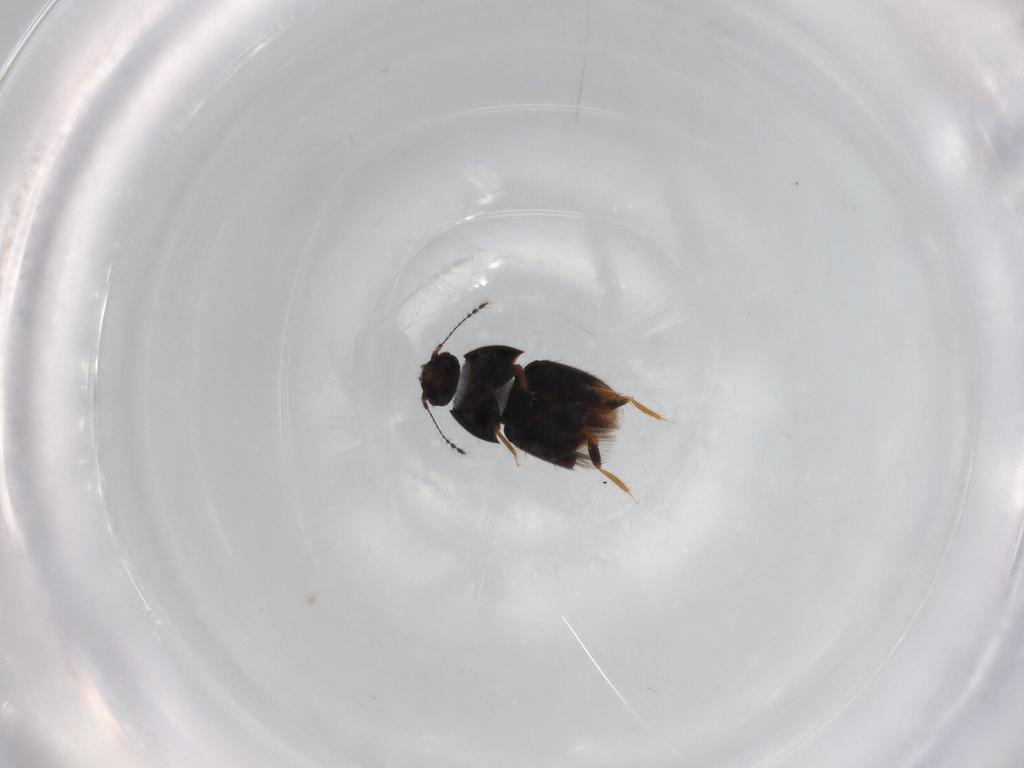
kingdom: Animalia
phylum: Arthropoda
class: Insecta
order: Coleoptera
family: Ptiliidae
